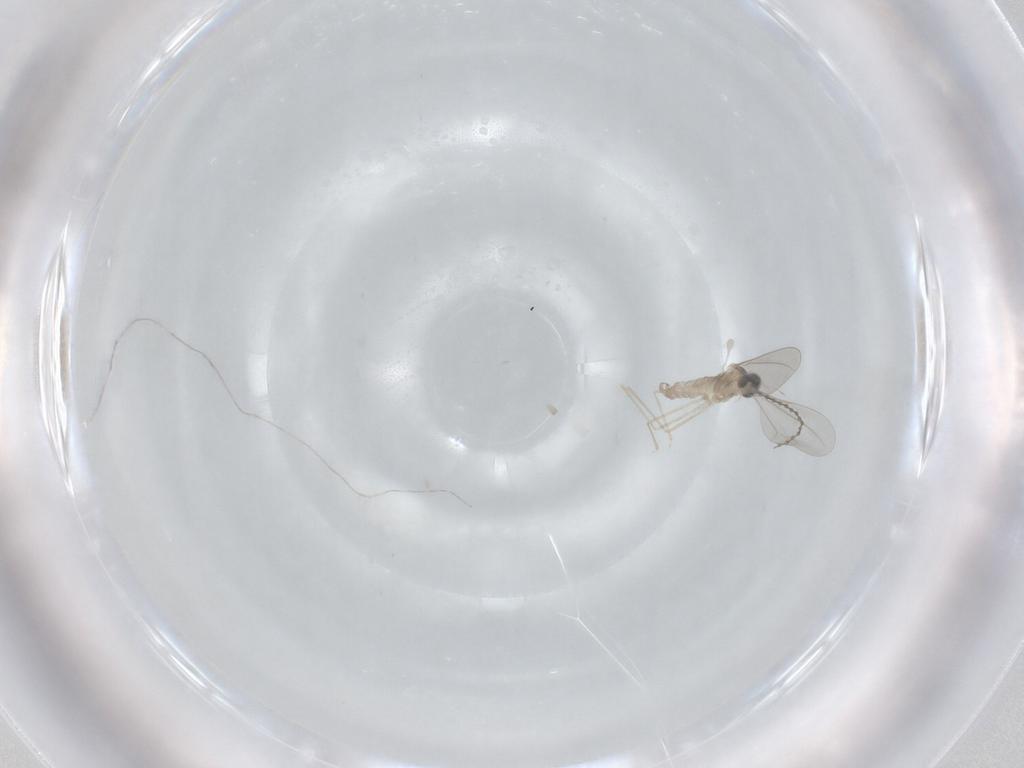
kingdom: Animalia
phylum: Arthropoda
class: Insecta
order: Diptera
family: Cecidomyiidae
